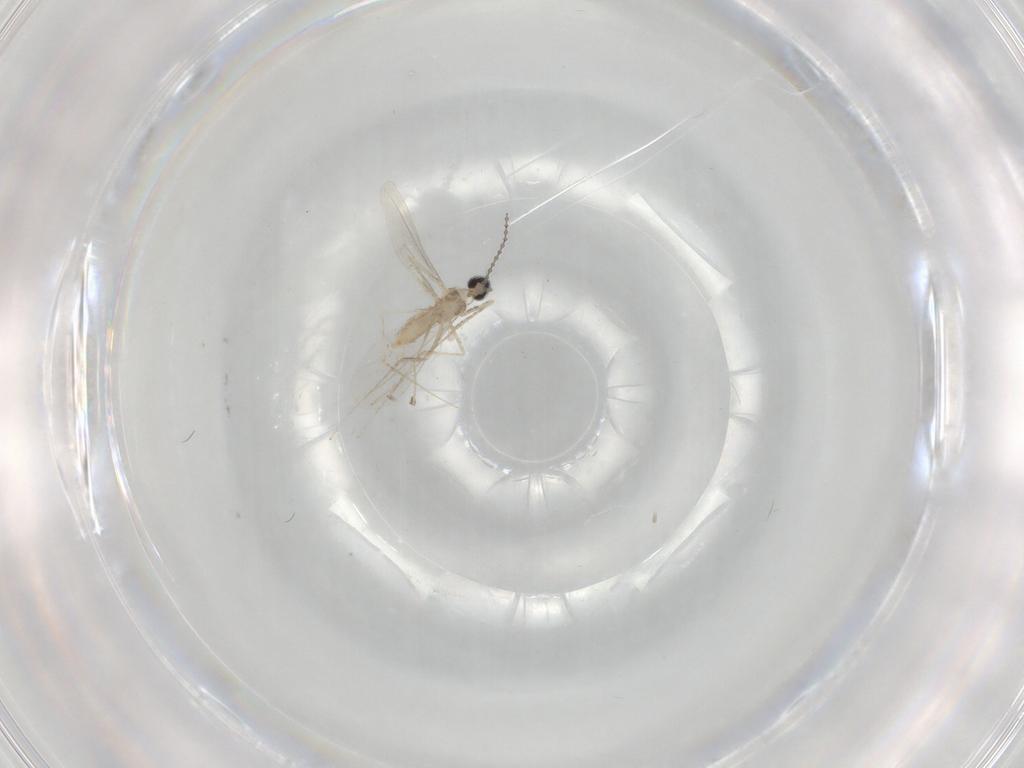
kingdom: Animalia
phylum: Arthropoda
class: Insecta
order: Diptera
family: Cecidomyiidae
